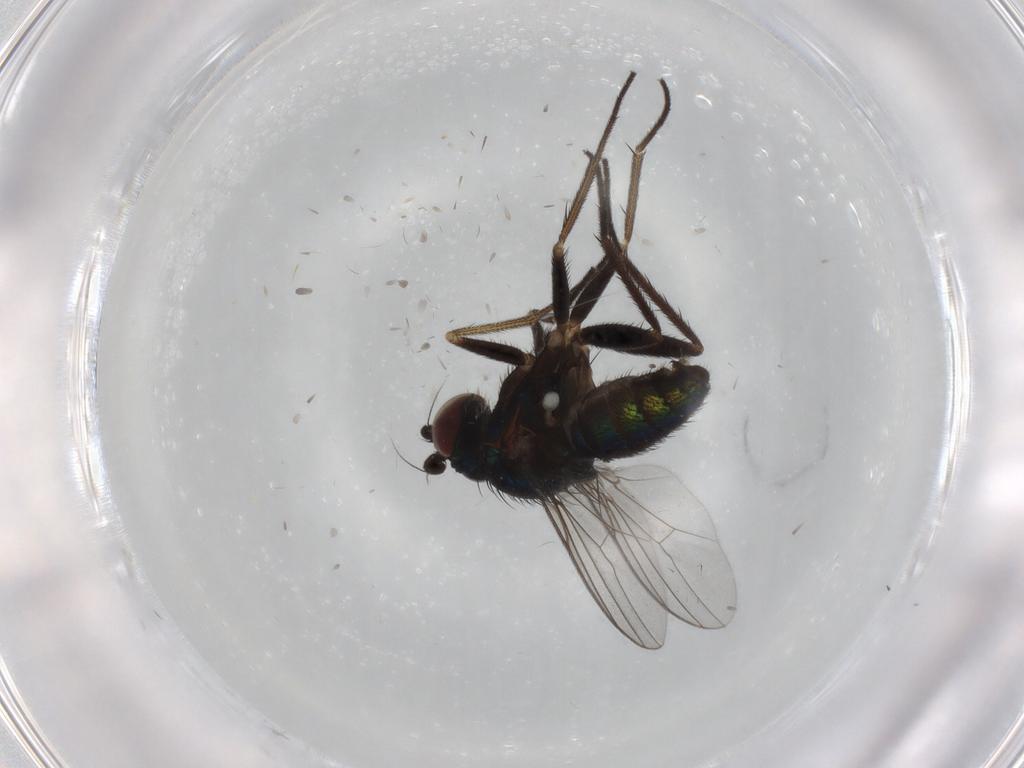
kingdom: Animalia
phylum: Arthropoda
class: Insecta
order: Diptera
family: Dolichopodidae
